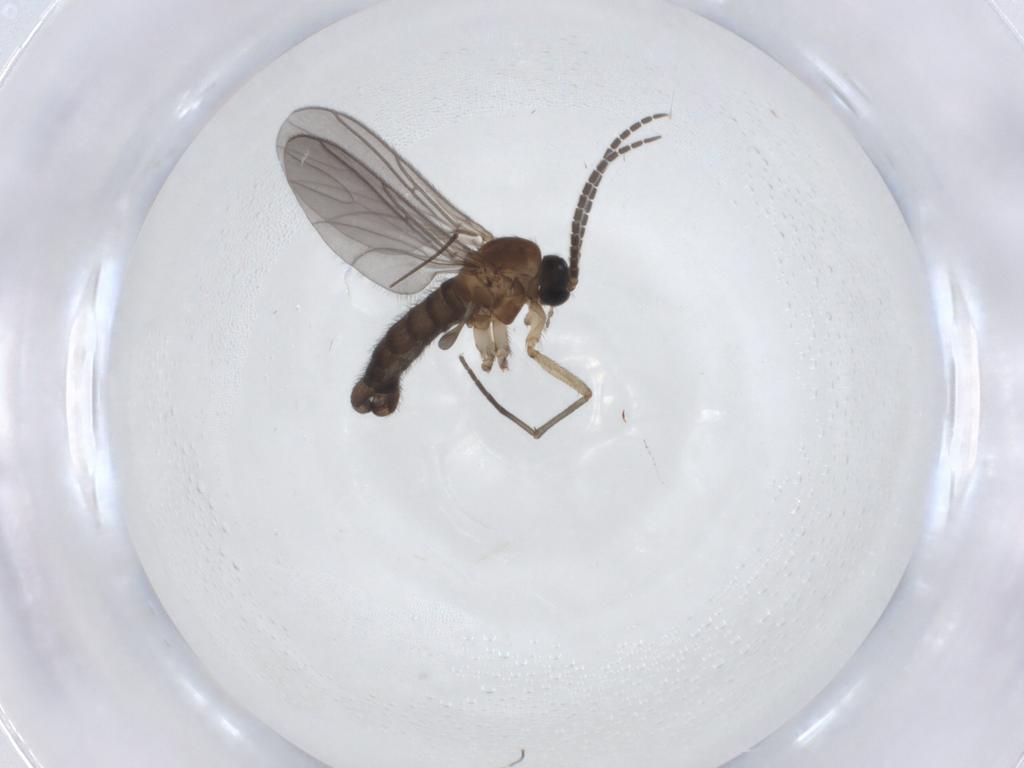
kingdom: Animalia
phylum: Arthropoda
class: Insecta
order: Diptera
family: Sciaridae
